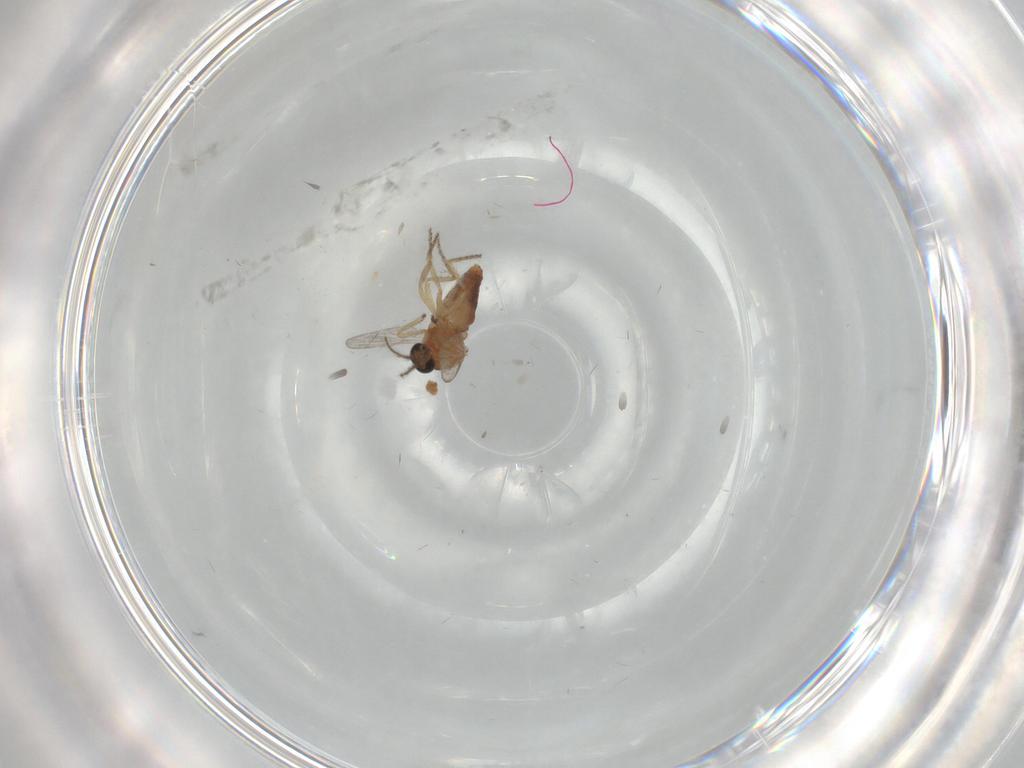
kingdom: Animalia
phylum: Arthropoda
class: Insecta
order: Diptera
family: Ceratopogonidae
